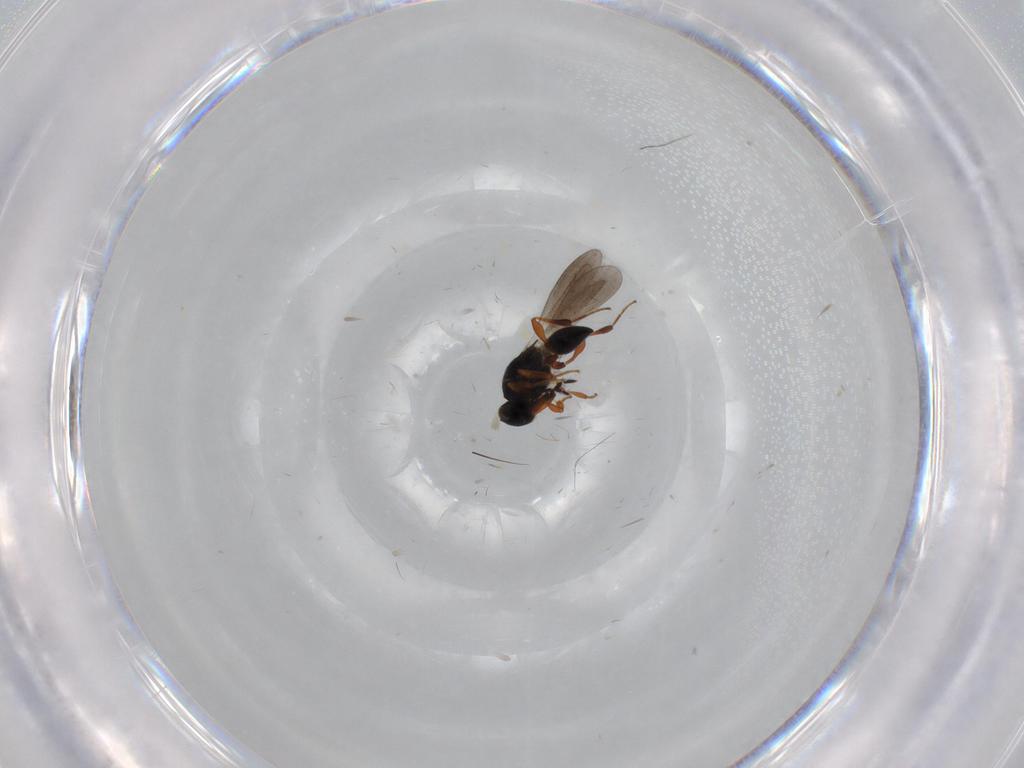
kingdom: Animalia
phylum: Arthropoda
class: Insecta
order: Hymenoptera
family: Platygastridae
